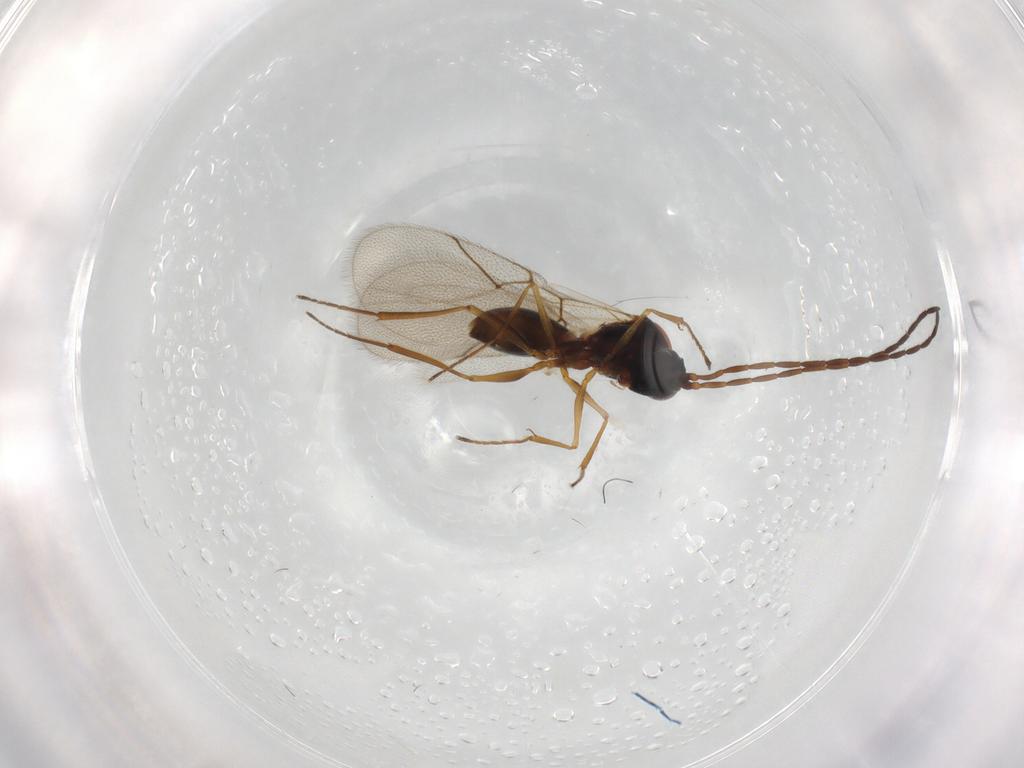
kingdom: Animalia
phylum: Arthropoda
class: Insecta
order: Hymenoptera
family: Figitidae
